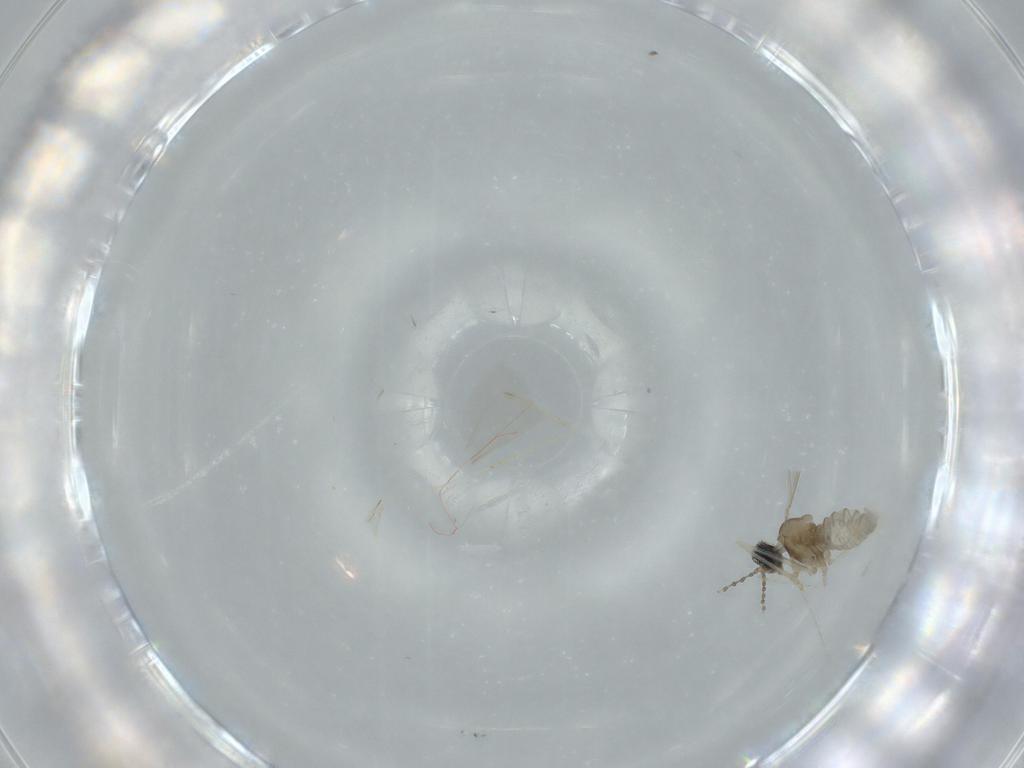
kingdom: Animalia
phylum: Arthropoda
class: Insecta
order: Diptera
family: Cecidomyiidae
